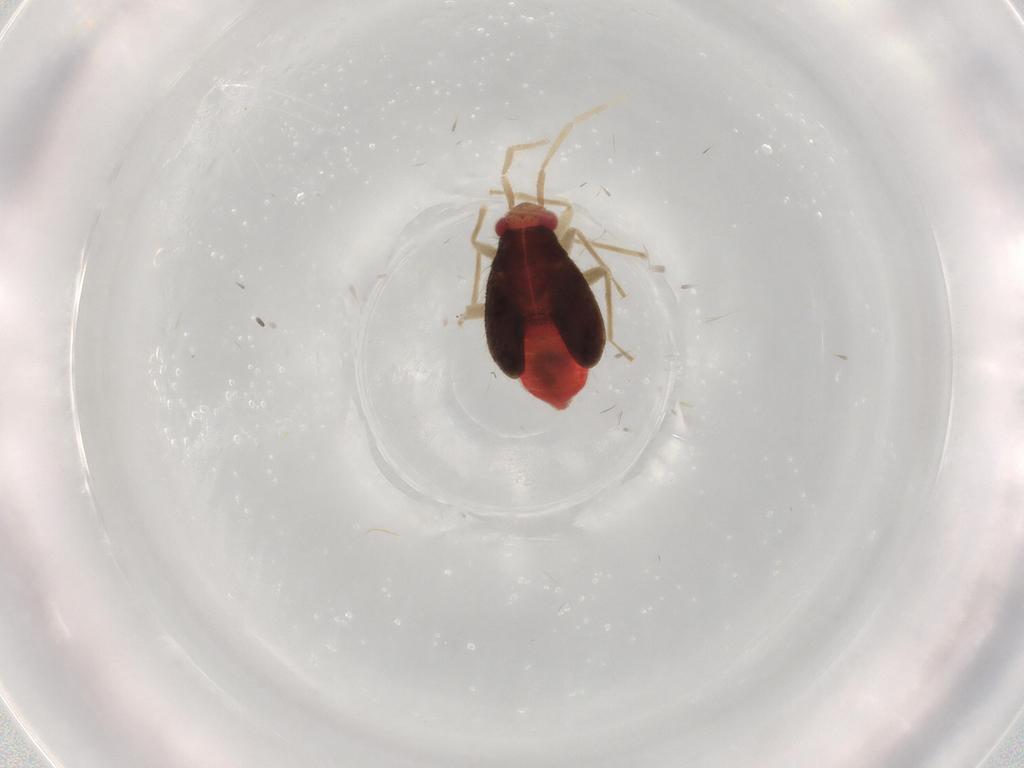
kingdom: Animalia
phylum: Arthropoda
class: Insecta
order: Hemiptera
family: Miridae
